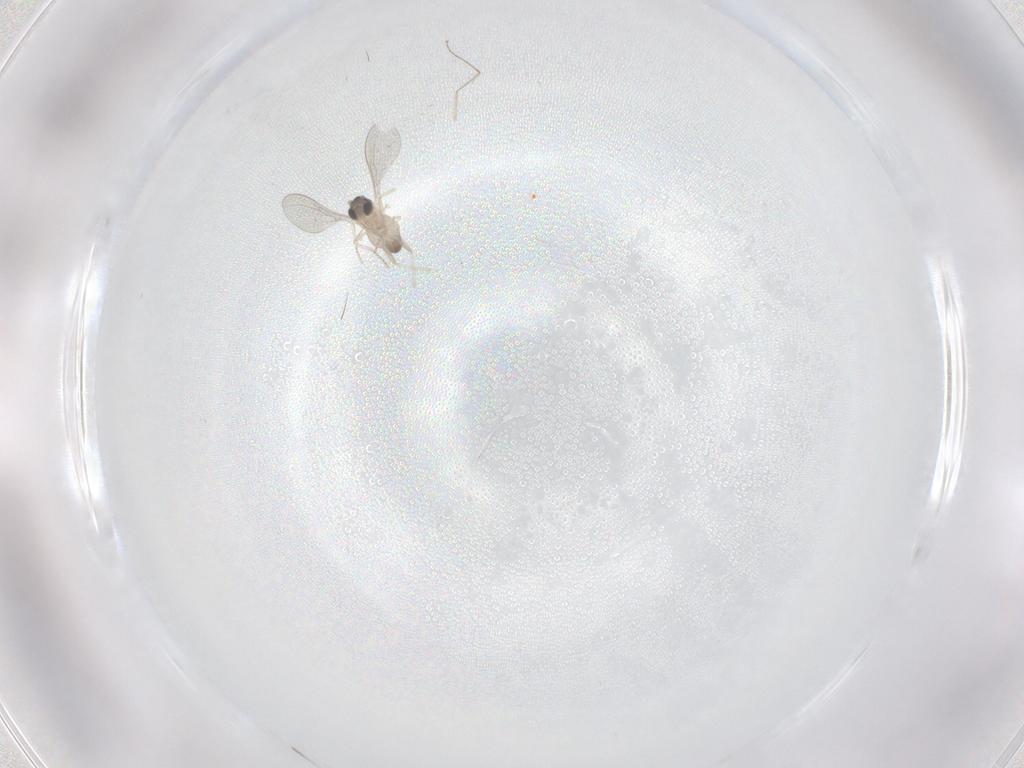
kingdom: Animalia
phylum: Arthropoda
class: Insecta
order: Diptera
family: Cecidomyiidae
